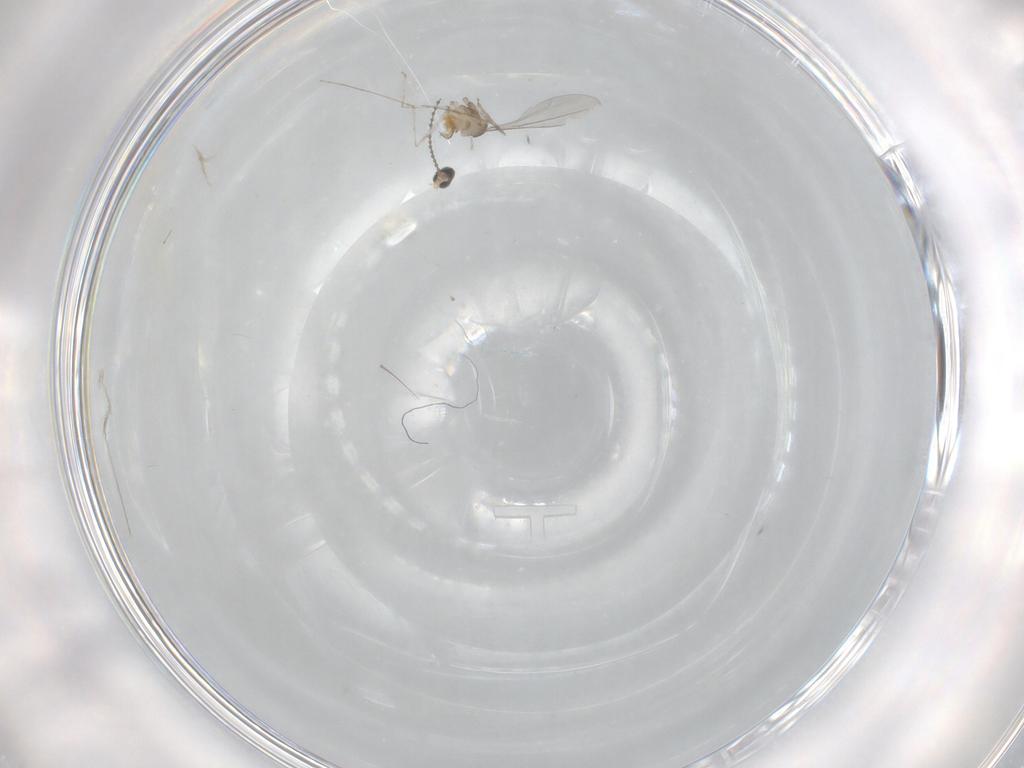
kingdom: Animalia
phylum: Arthropoda
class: Insecta
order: Diptera
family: Cecidomyiidae
